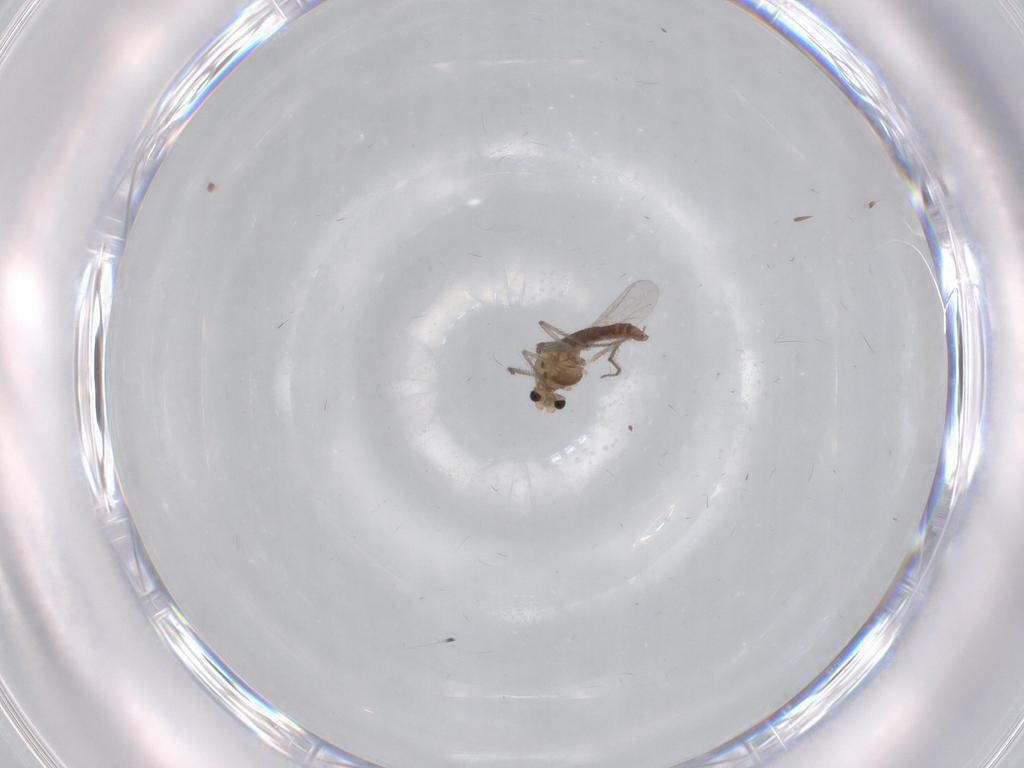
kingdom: Animalia
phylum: Arthropoda
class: Insecta
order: Diptera
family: Chironomidae
